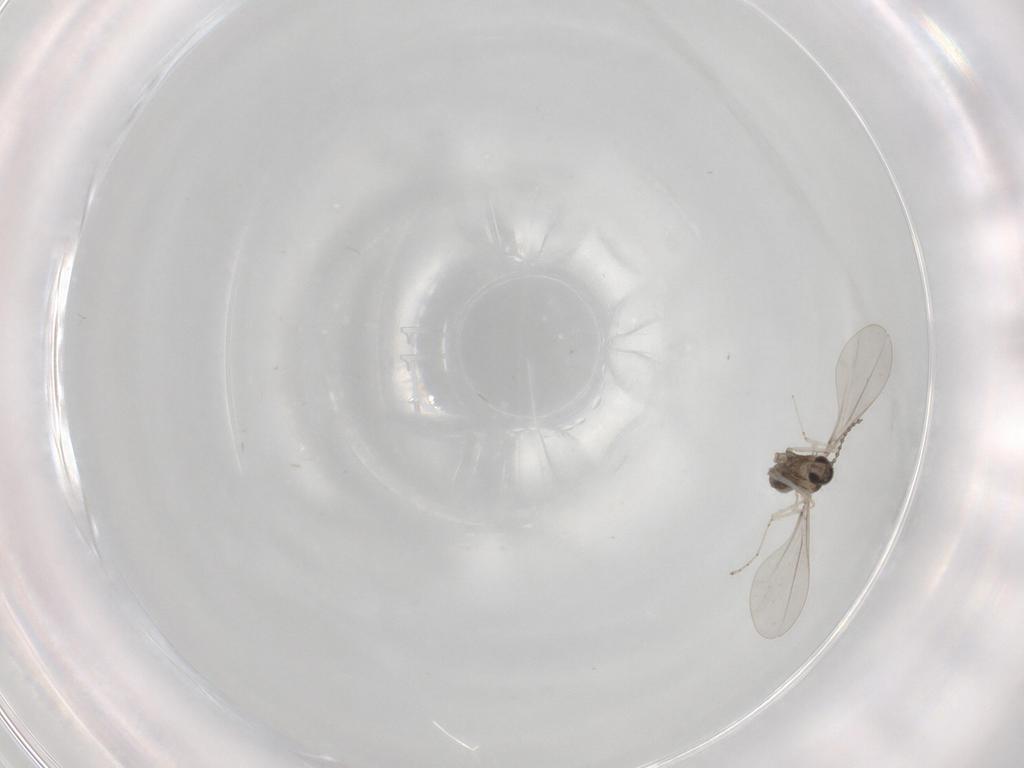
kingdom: Animalia
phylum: Arthropoda
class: Insecta
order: Diptera
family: Cecidomyiidae
